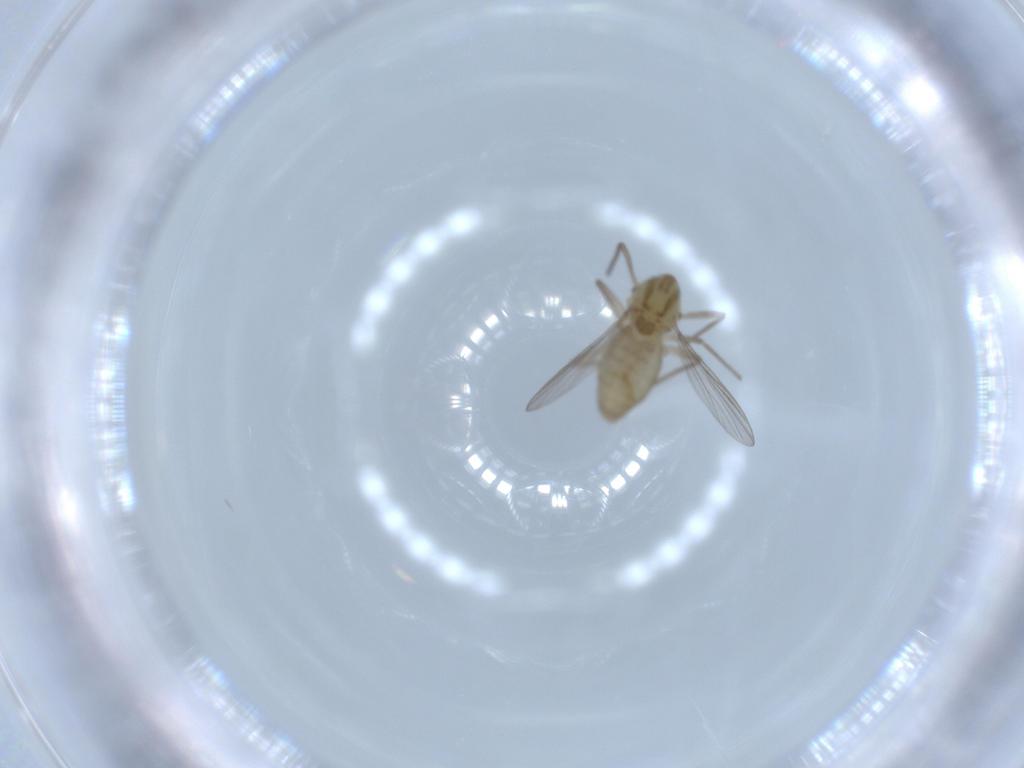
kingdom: Animalia
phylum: Arthropoda
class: Insecta
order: Diptera
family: Chironomidae
